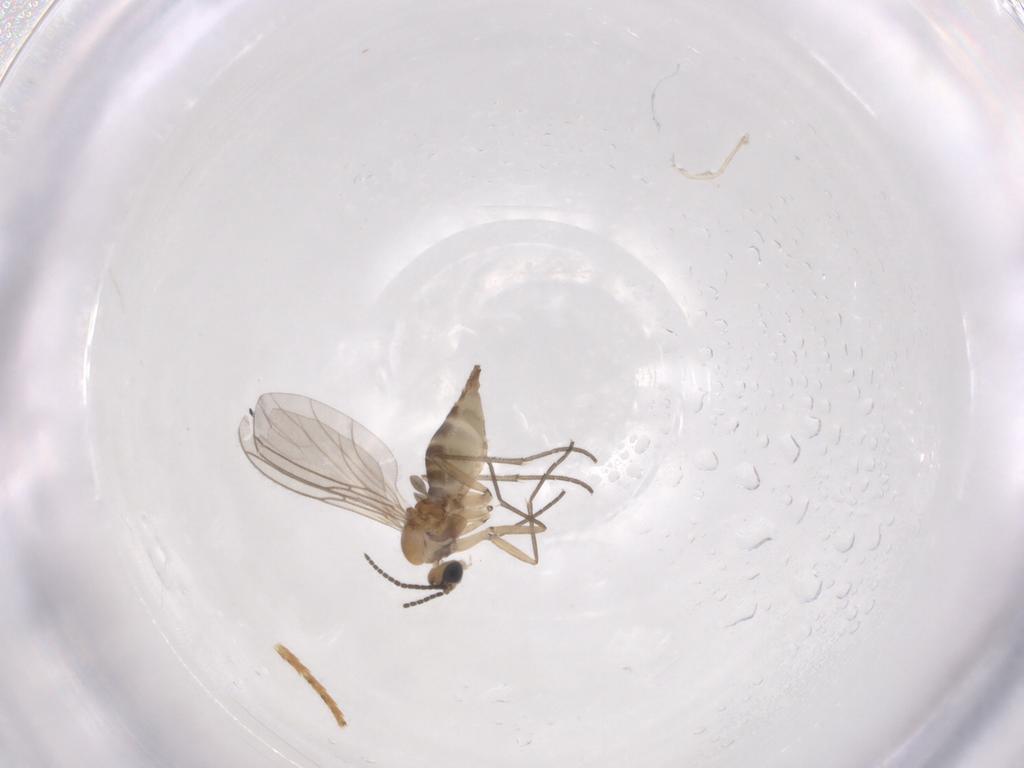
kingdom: Animalia
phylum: Arthropoda
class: Insecta
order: Diptera
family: Sciaridae
